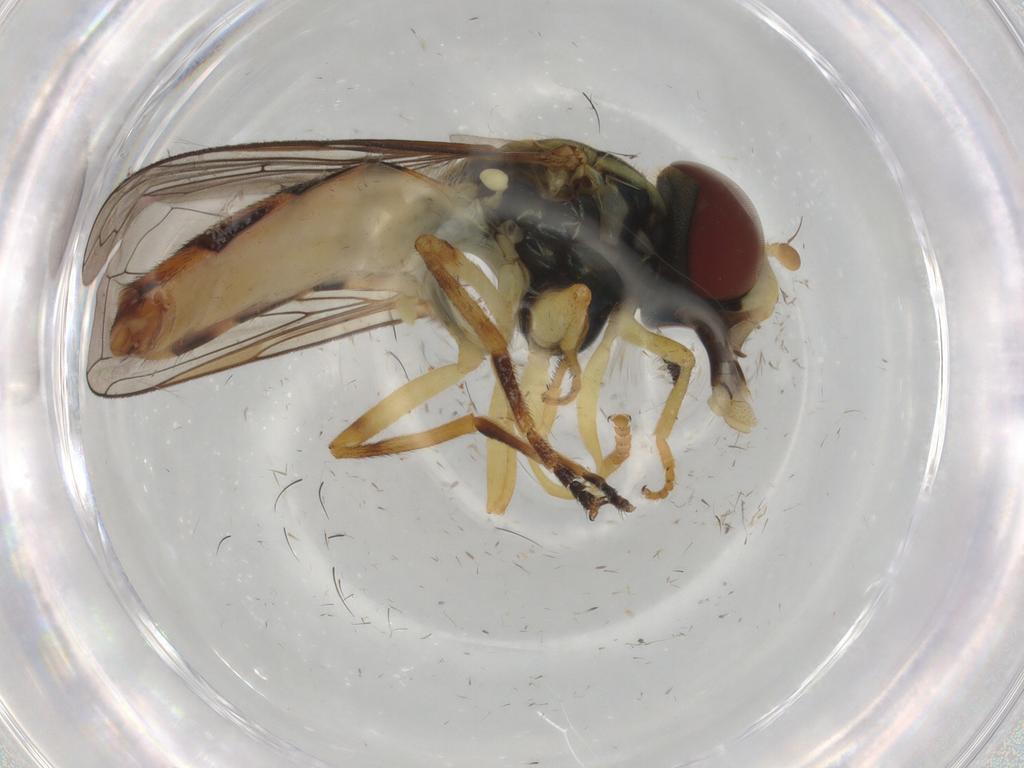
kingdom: Animalia
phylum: Arthropoda
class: Insecta
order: Diptera
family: Syrphidae
